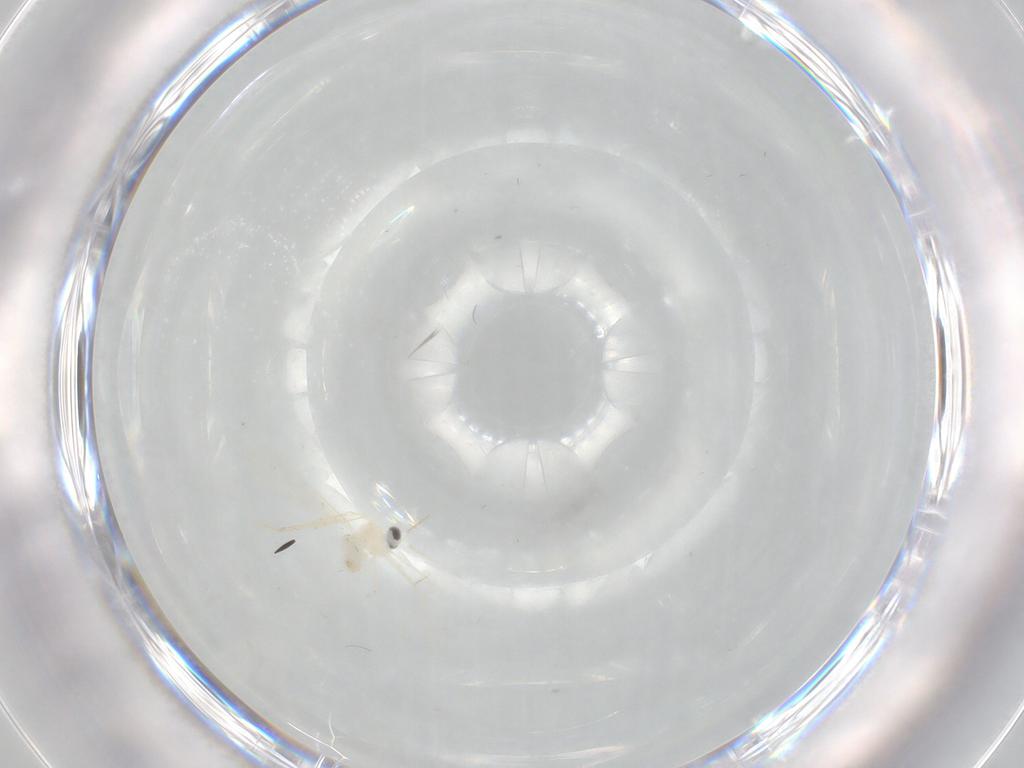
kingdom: Animalia
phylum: Arthropoda
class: Insecta
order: Diptera
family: Cecidomyiidae
